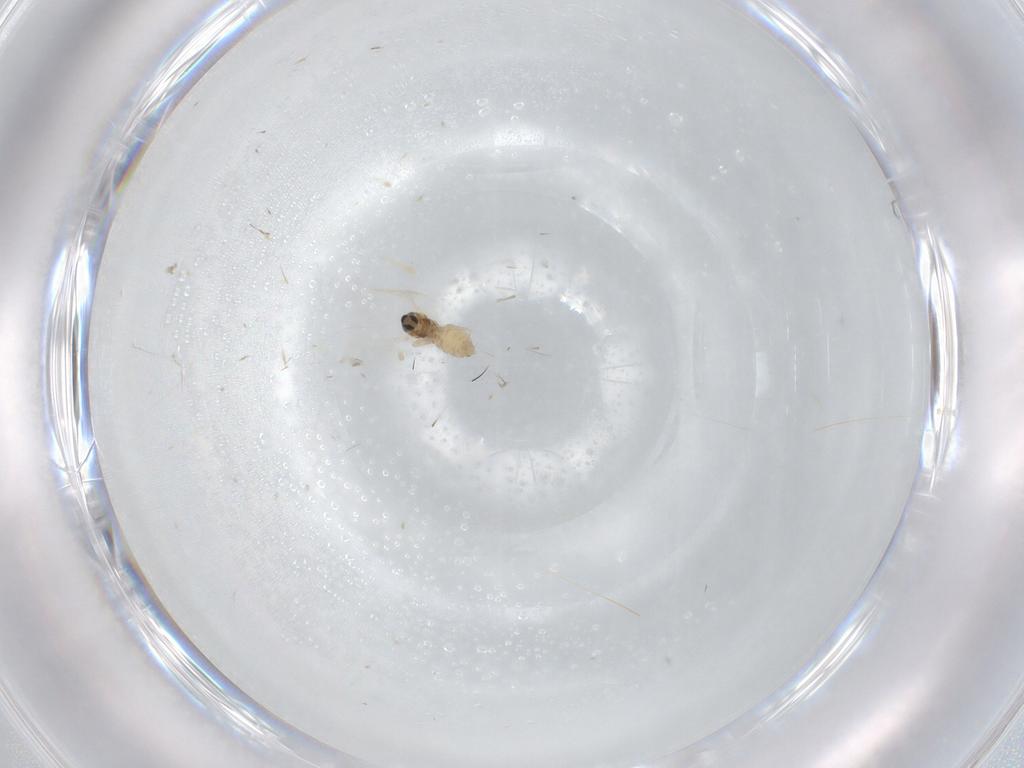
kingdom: Animalia
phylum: Arthropoda
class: Insecta
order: Diptera
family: Cecidomyiidae
